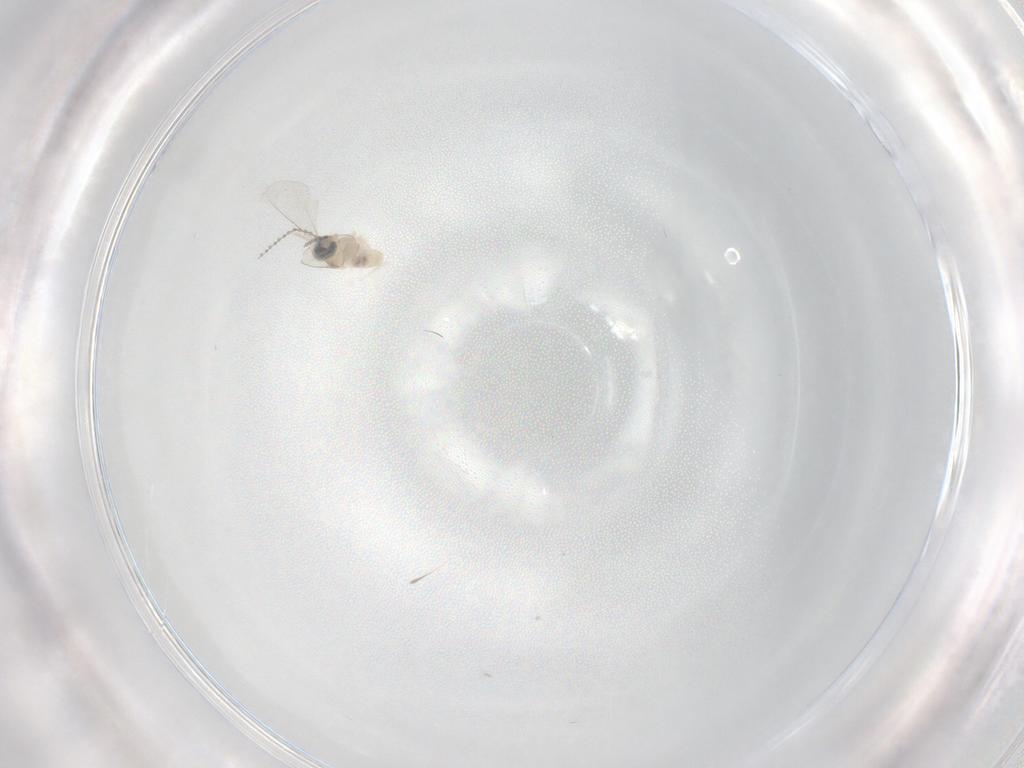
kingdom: Animalia
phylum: Arthropoda
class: Insecta
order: Diptera
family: Cecidomyiidae
